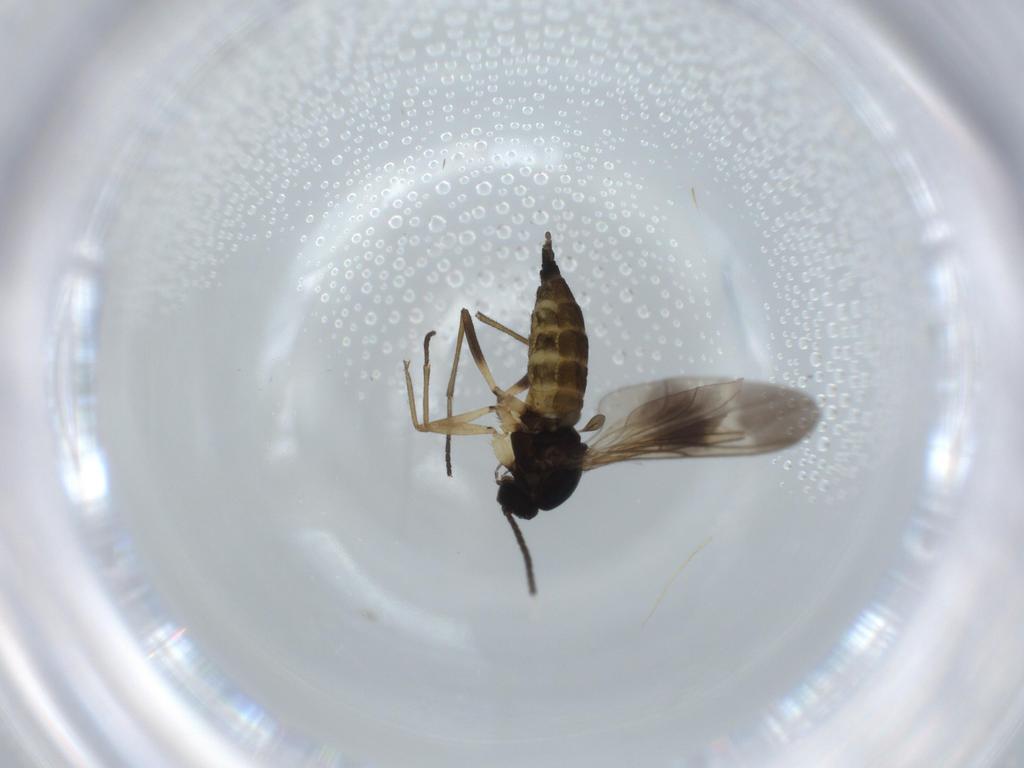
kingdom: Animalia
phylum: Arthropoda
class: Insecta
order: Diptera
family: Sciaridae
